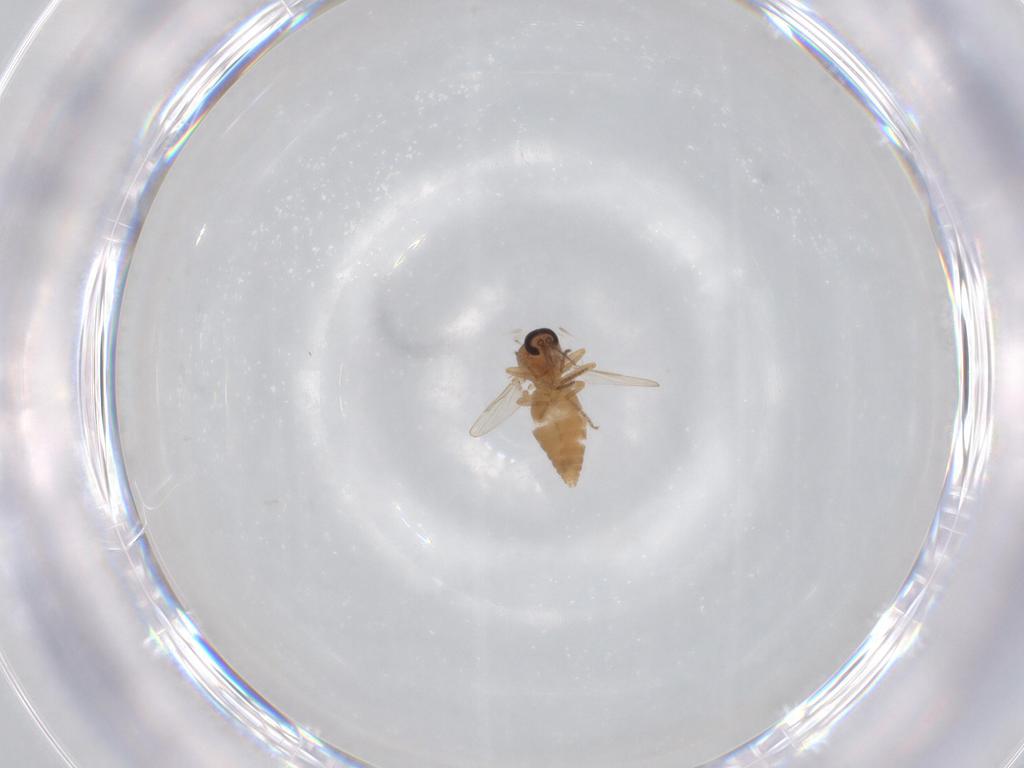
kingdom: Animalia
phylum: Arthropoda
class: Insecta
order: Diptera
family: Ceratopogonidae
